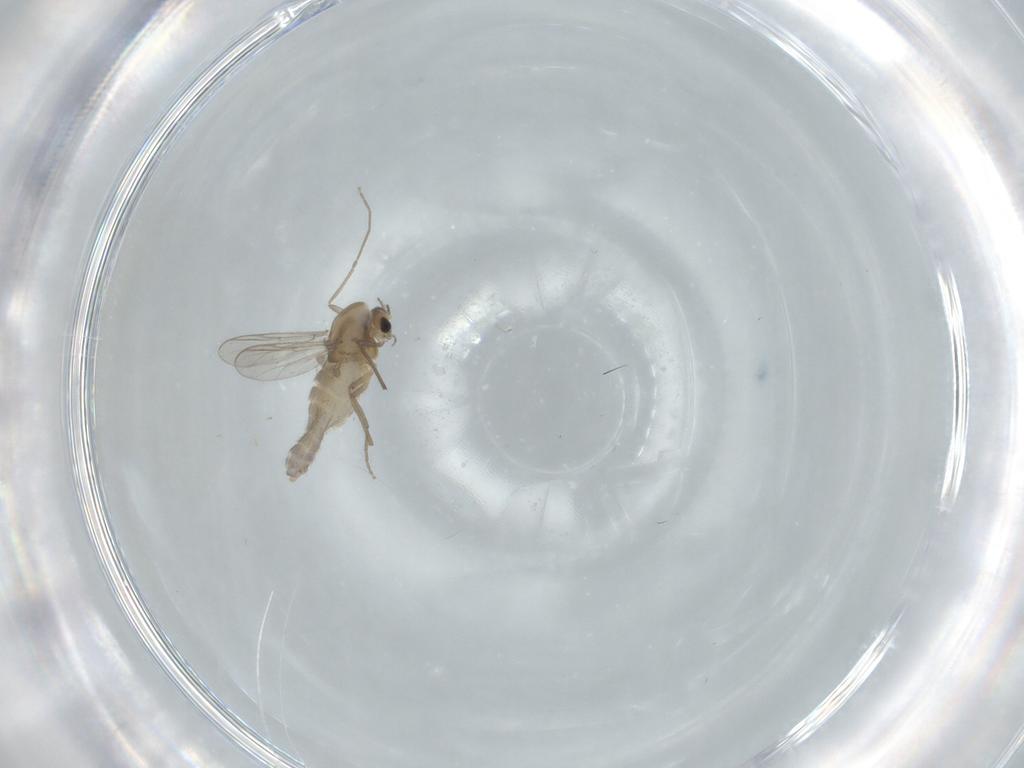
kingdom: Animalia
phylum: Arthropoda
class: Insecta
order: Diptera
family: Chironomidae
